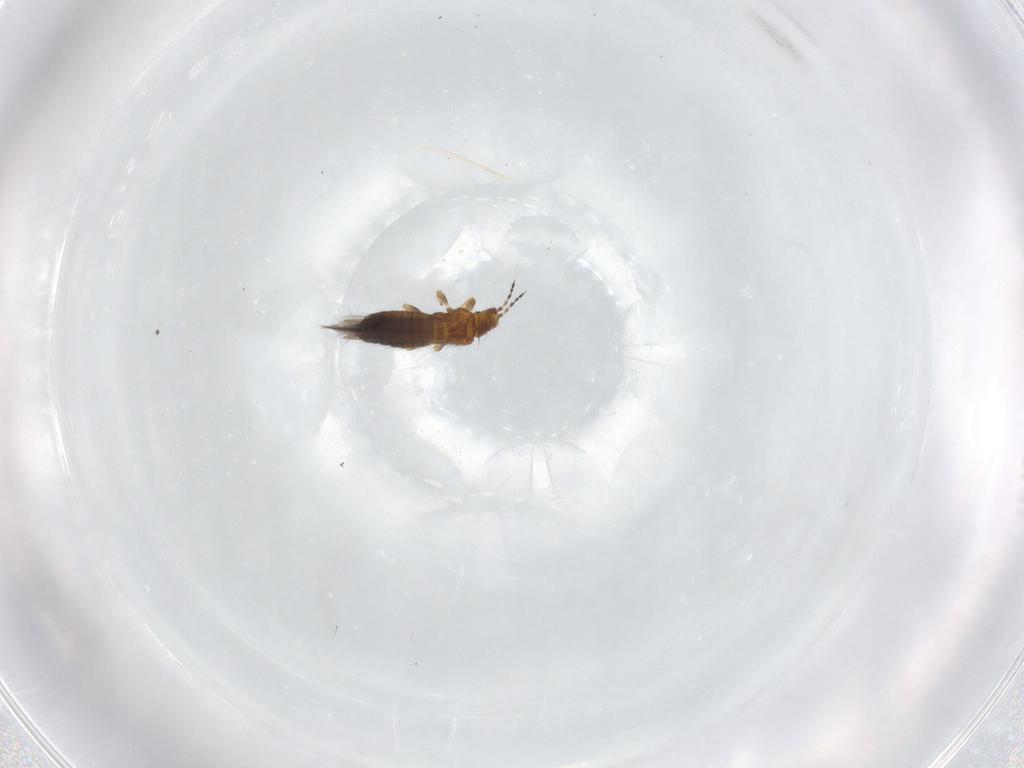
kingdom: Animalia
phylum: Arthropoda
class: Insecta
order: Thysanoptera
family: Thripidae
